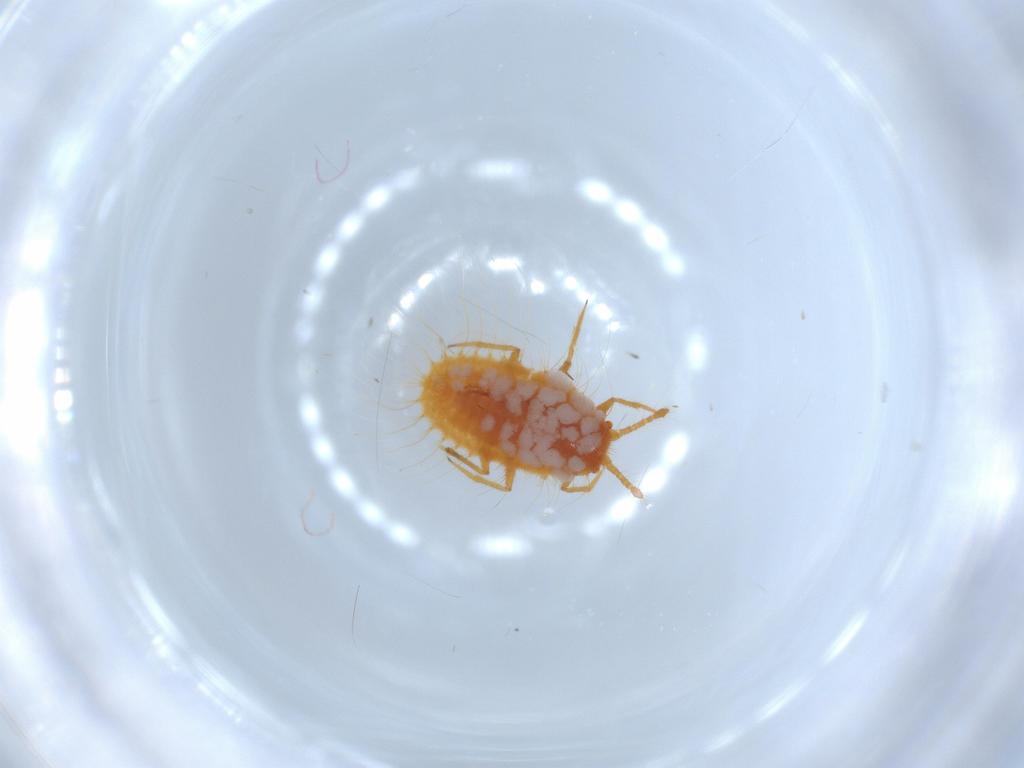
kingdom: Animalia
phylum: Arthropoda
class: Insecta
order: Hemiptera
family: Coccoidea_incertae_sedis
